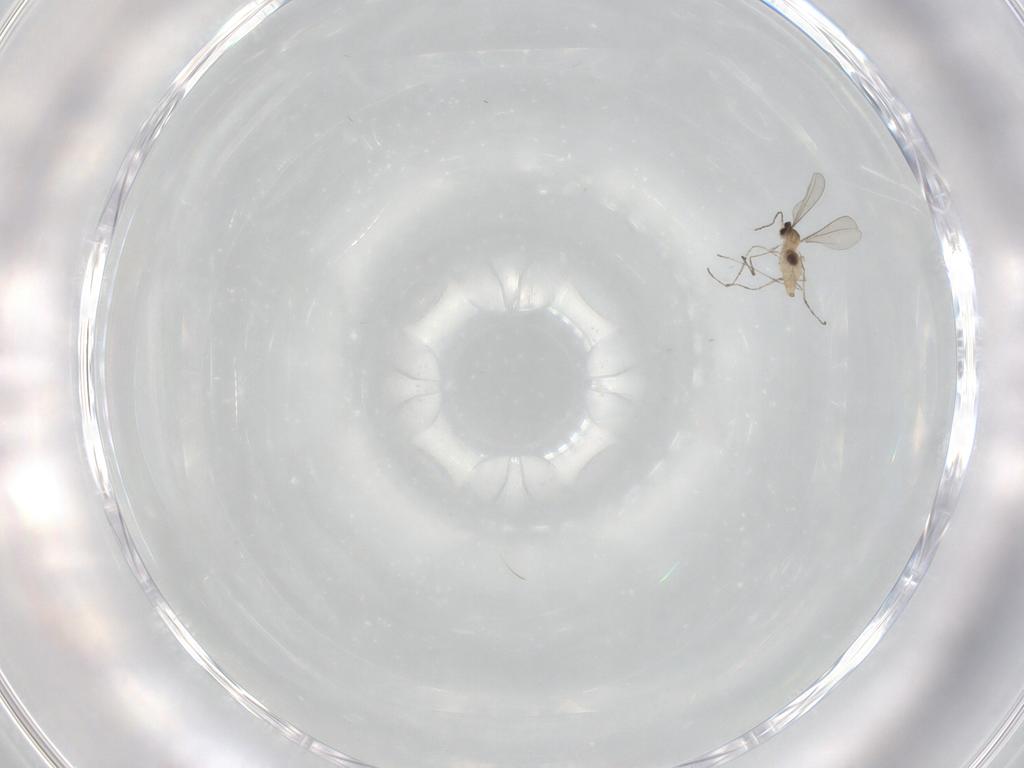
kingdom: Animalia
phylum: Arthropoda
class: Insecta
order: Diptera
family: Cecidomyiidae
